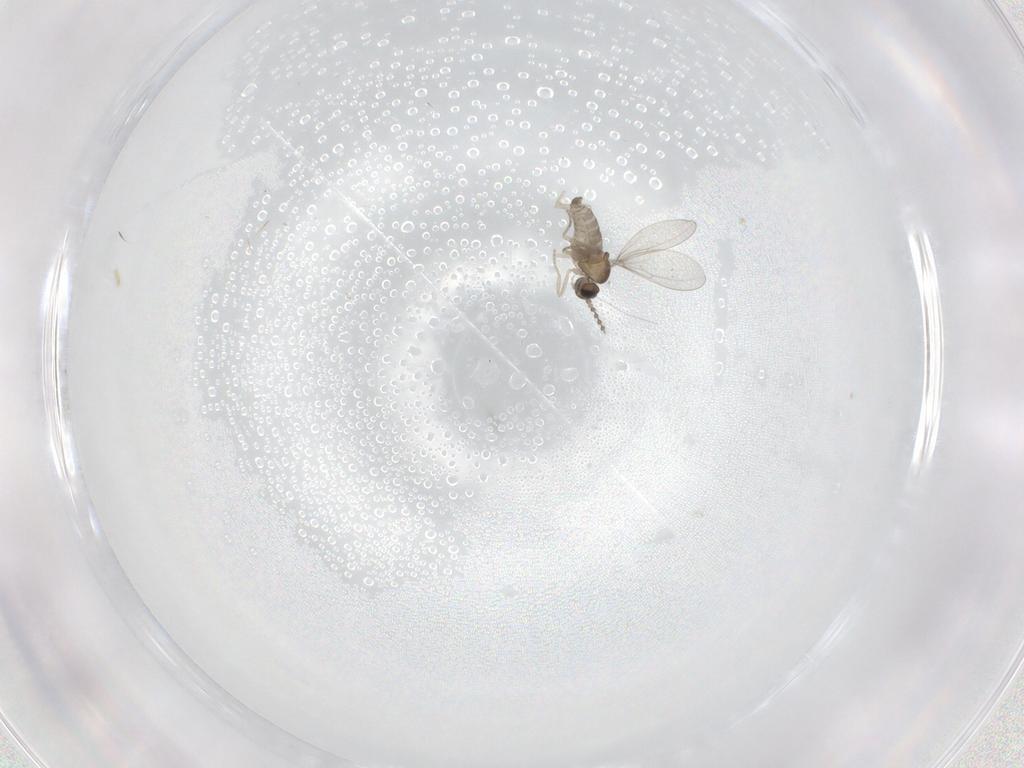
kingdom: Animalia
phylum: Arthropoda
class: Insecta
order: Diptera
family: Cecidomyiidae
